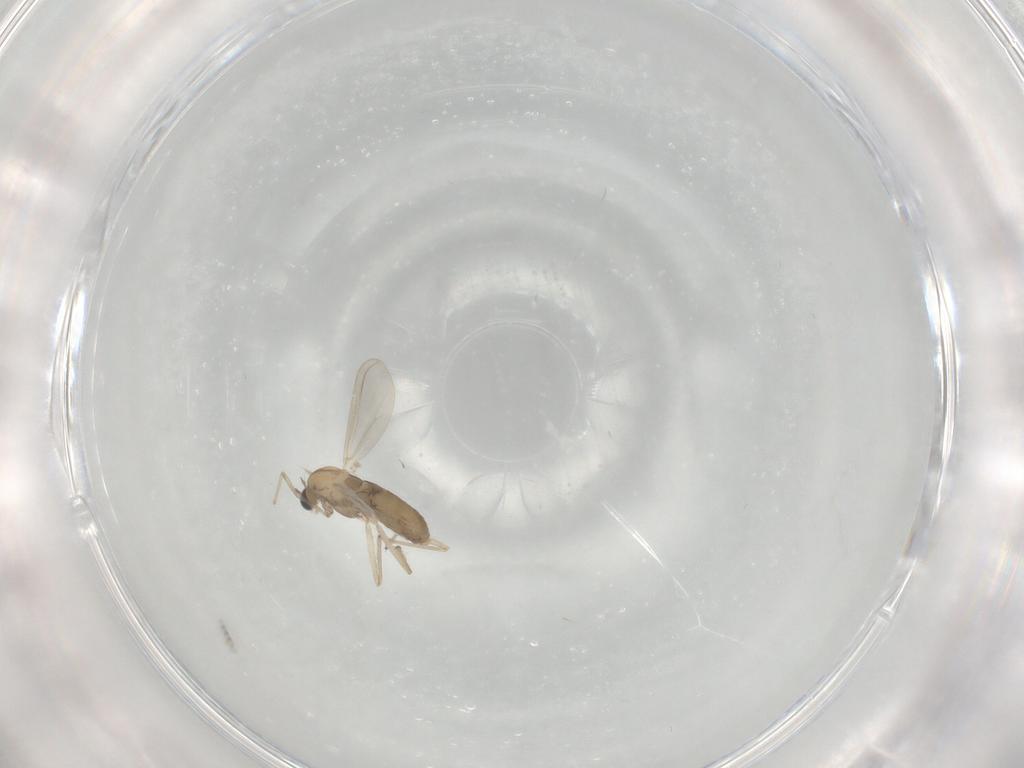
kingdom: Animalia
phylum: Arthropoda
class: Insecta
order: Diptera
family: Chironomidae
